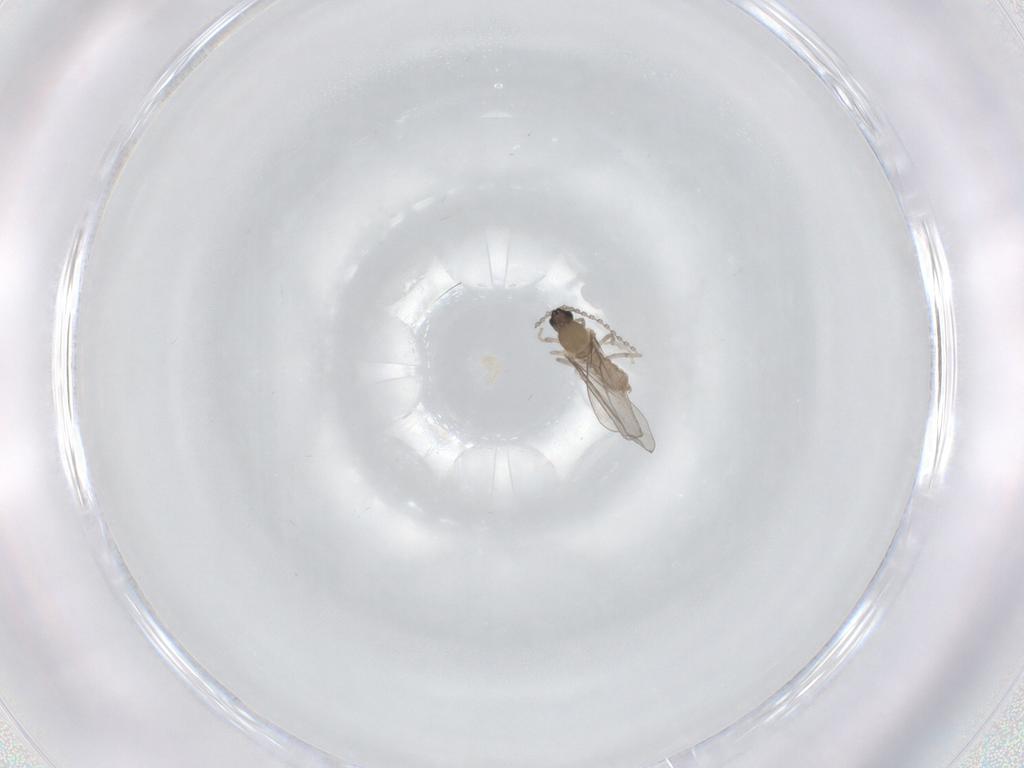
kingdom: Animalia
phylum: Arthropoda
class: Insecta
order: Diptera
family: Cecidomyiidae
